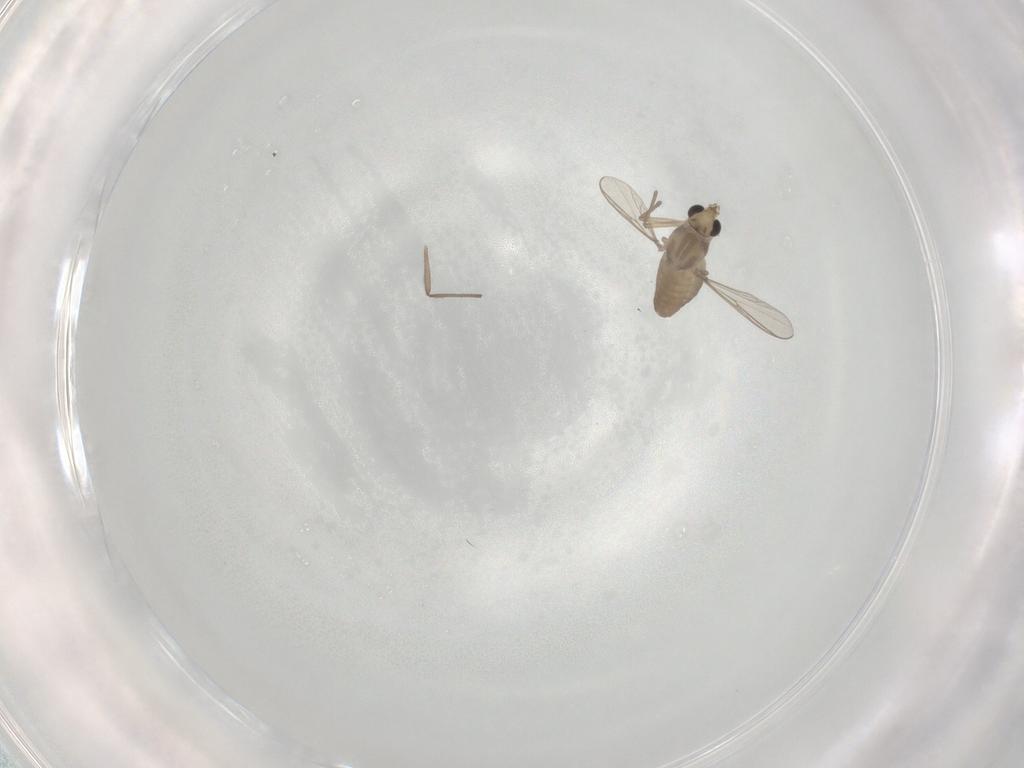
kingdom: Animalia
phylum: Arthropoda
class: Insecta
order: Diptera
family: Chironomidae
